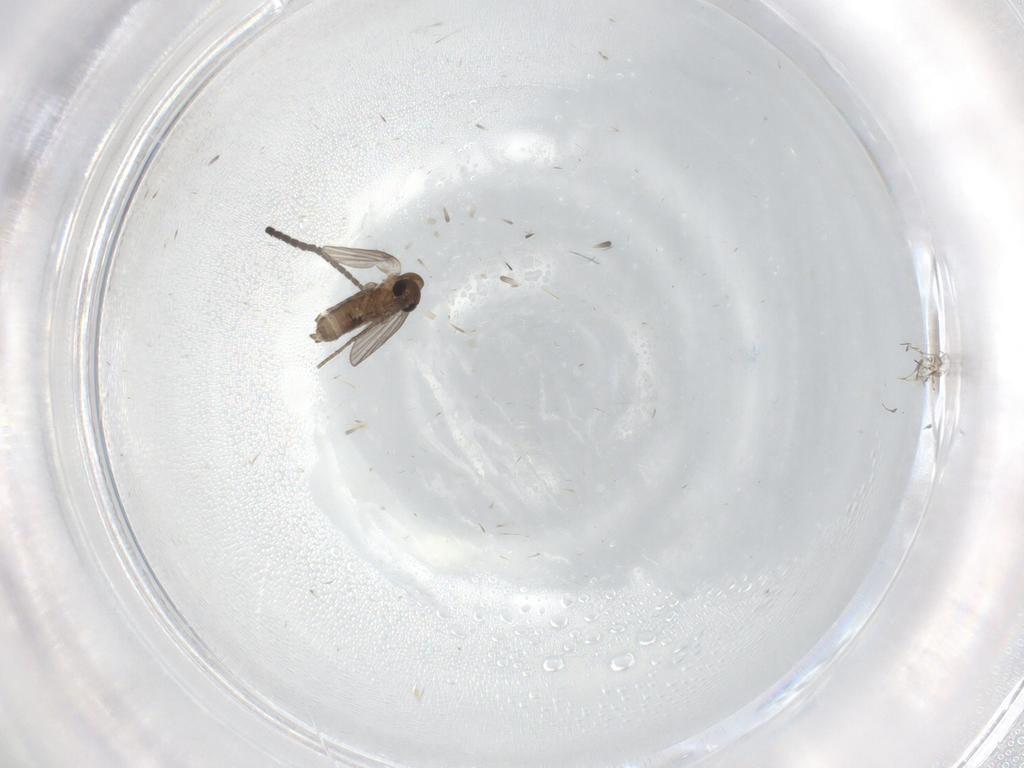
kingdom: Animalia
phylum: Arthropoda
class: Insecta
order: Diptera
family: Sciaridae
